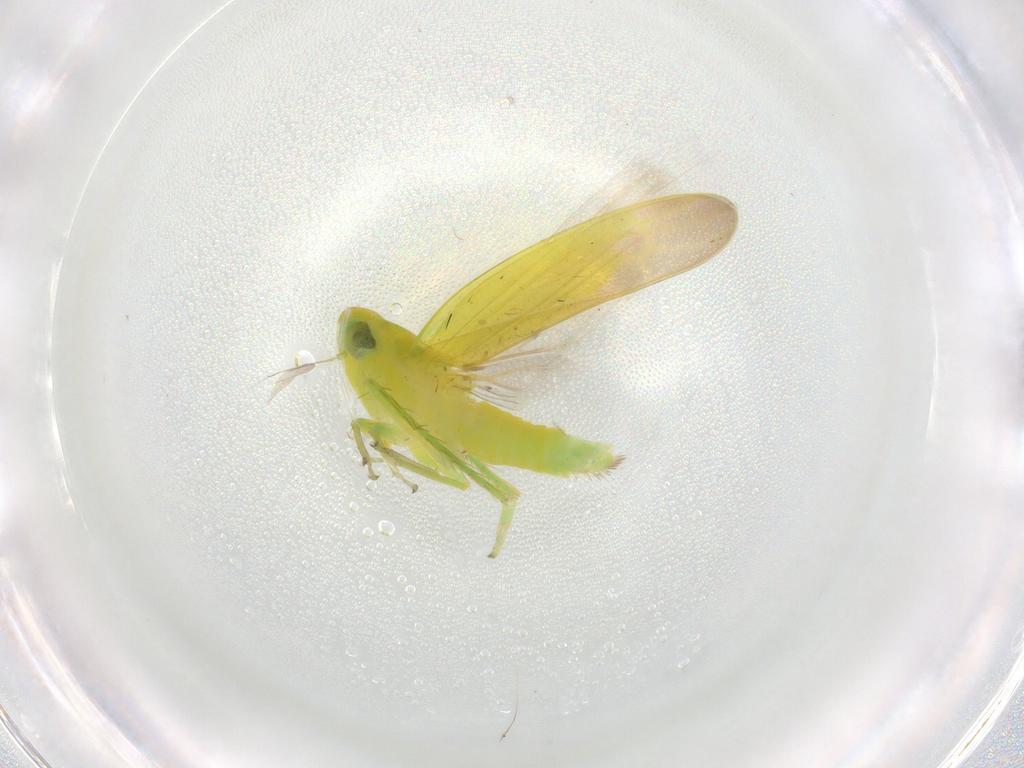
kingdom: Animalia
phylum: Arthropoda
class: Insecta
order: Hemiptera
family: Cicadellidae
